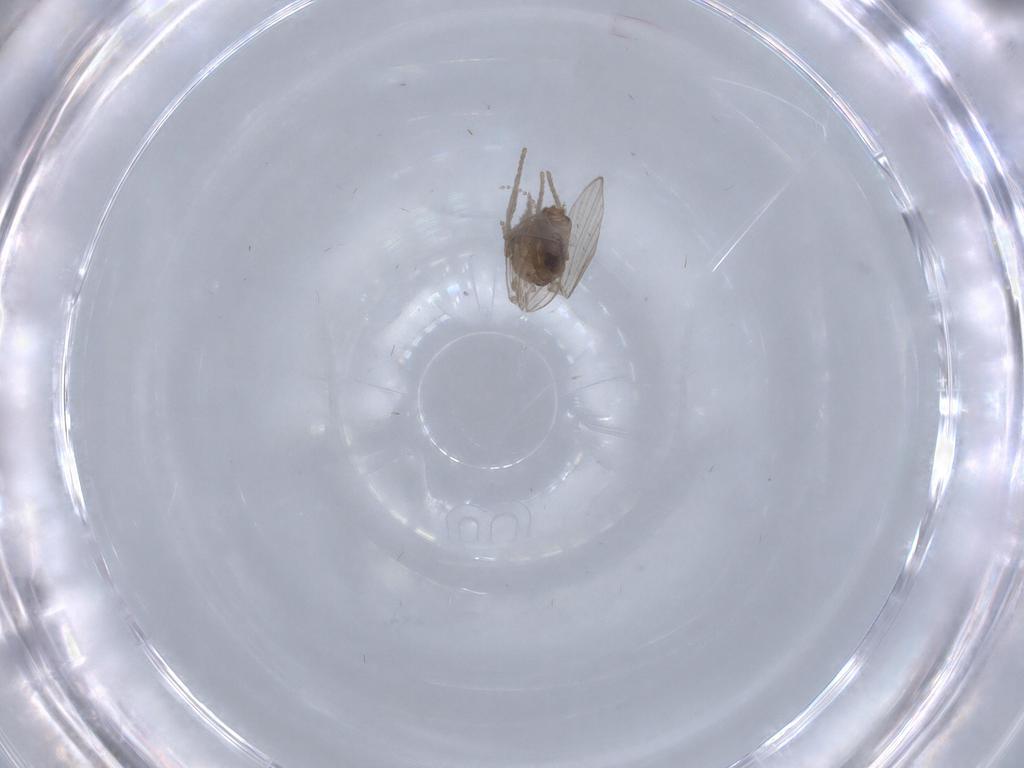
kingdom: Animalia
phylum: Arthropoda
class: Insecta
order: Diptera
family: Psychodidae
